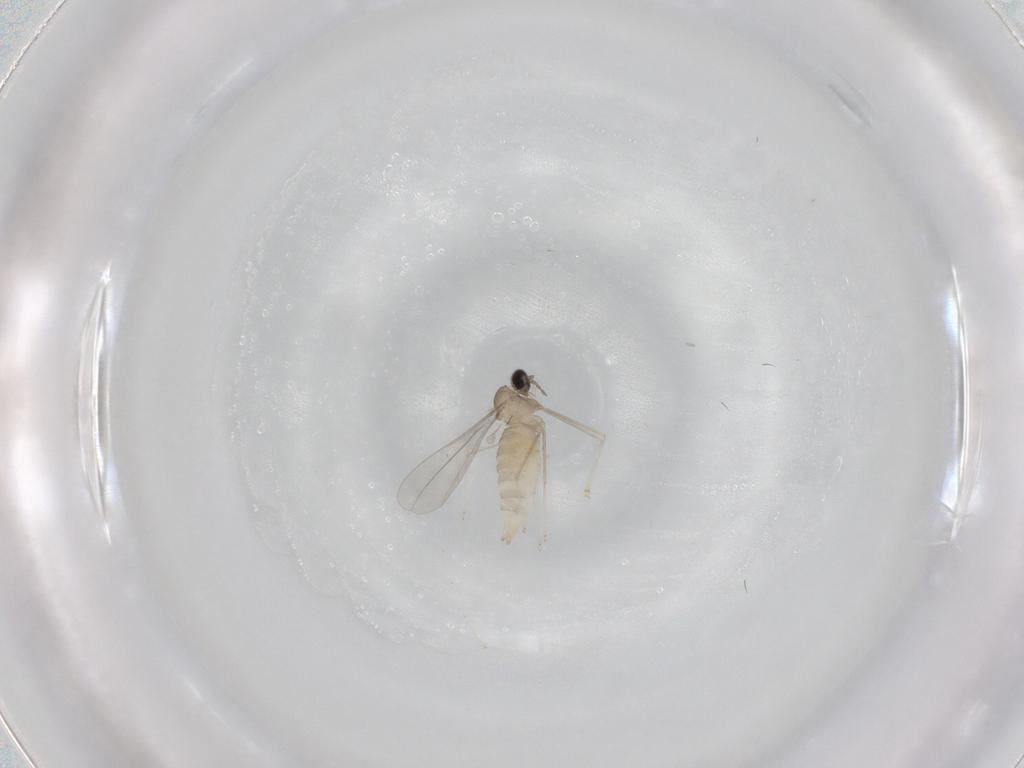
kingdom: Animalia
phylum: Arthropoda
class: Insecta
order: Diptera
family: Cecidomyiidae
